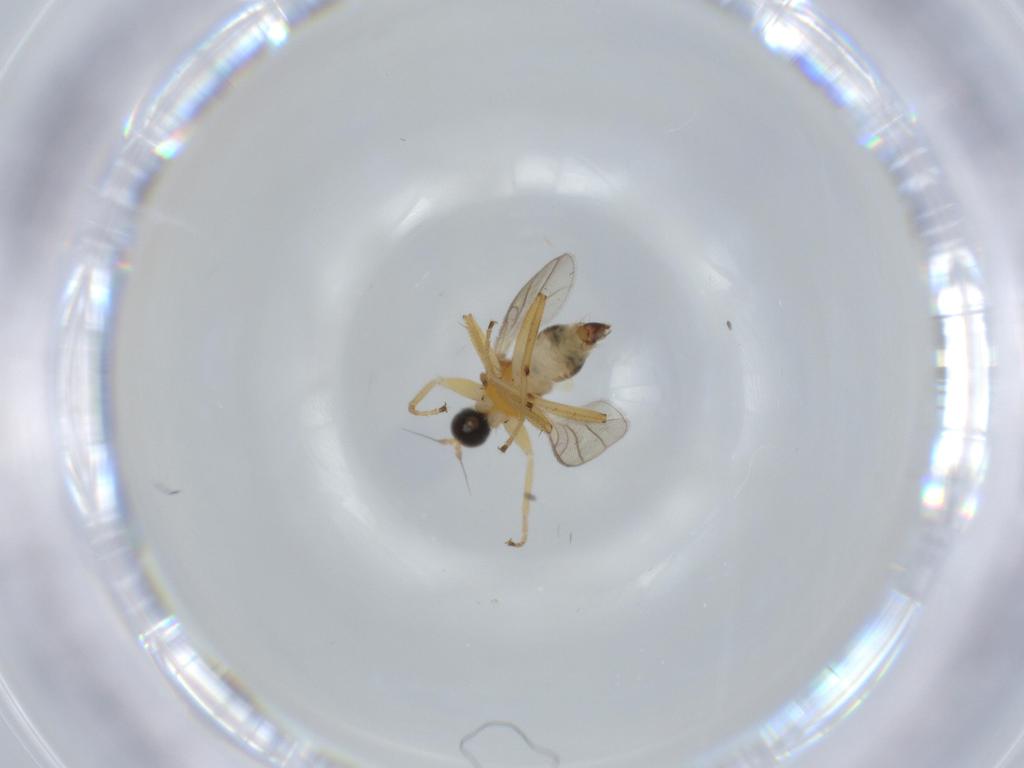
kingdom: Animalia
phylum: Arthropoda
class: Insecta
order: Diptera
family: Hybotidae
